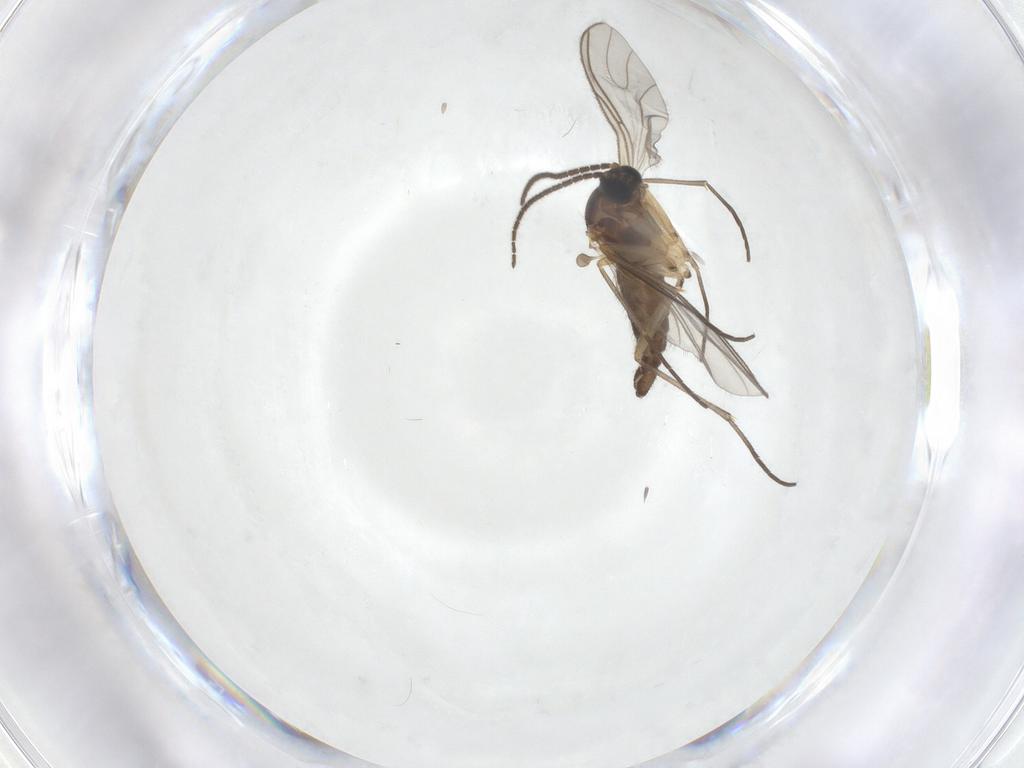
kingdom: Animalia
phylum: Arthropoda
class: Insecta
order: Diptera
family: Sciaridae
